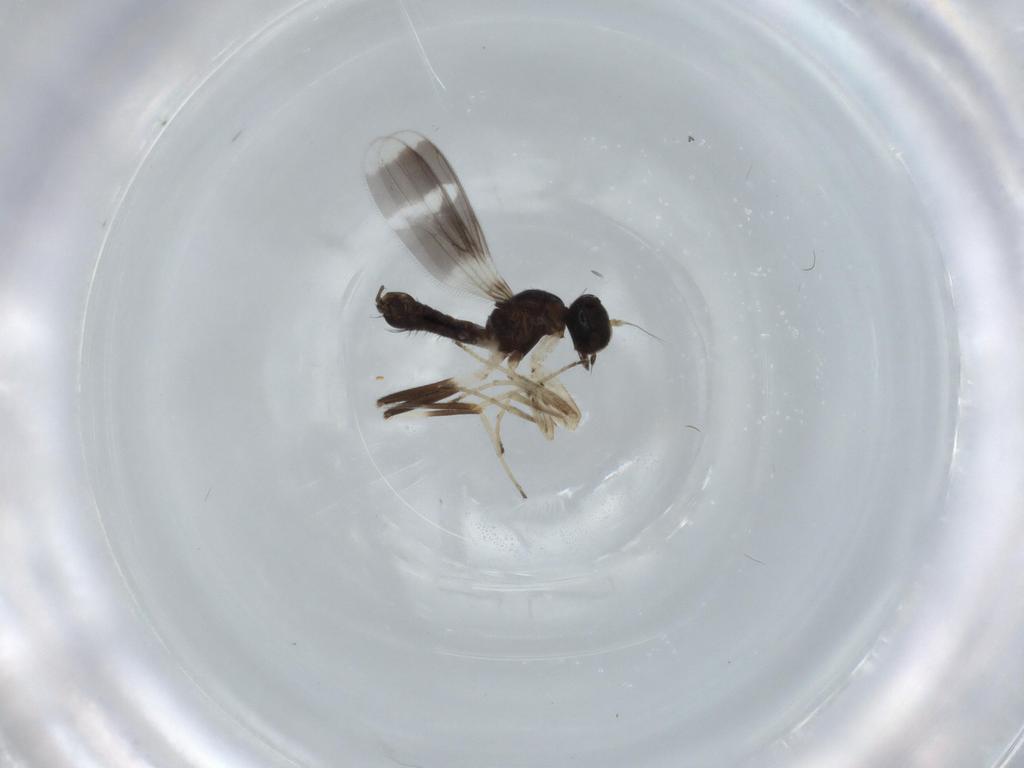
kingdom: Animalia
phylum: Arthropoda
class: Insecta
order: Diptera
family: Hybotidae
